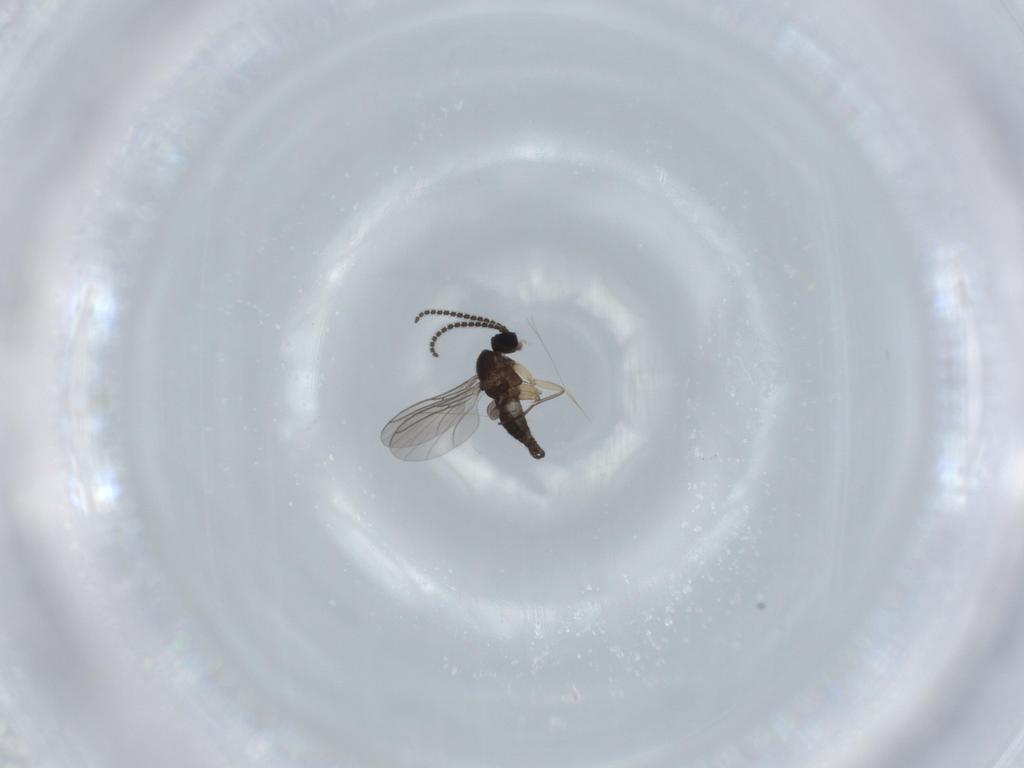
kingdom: Animalia
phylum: Arthropoda
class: Insecta
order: Diptera
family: Sciaridae
